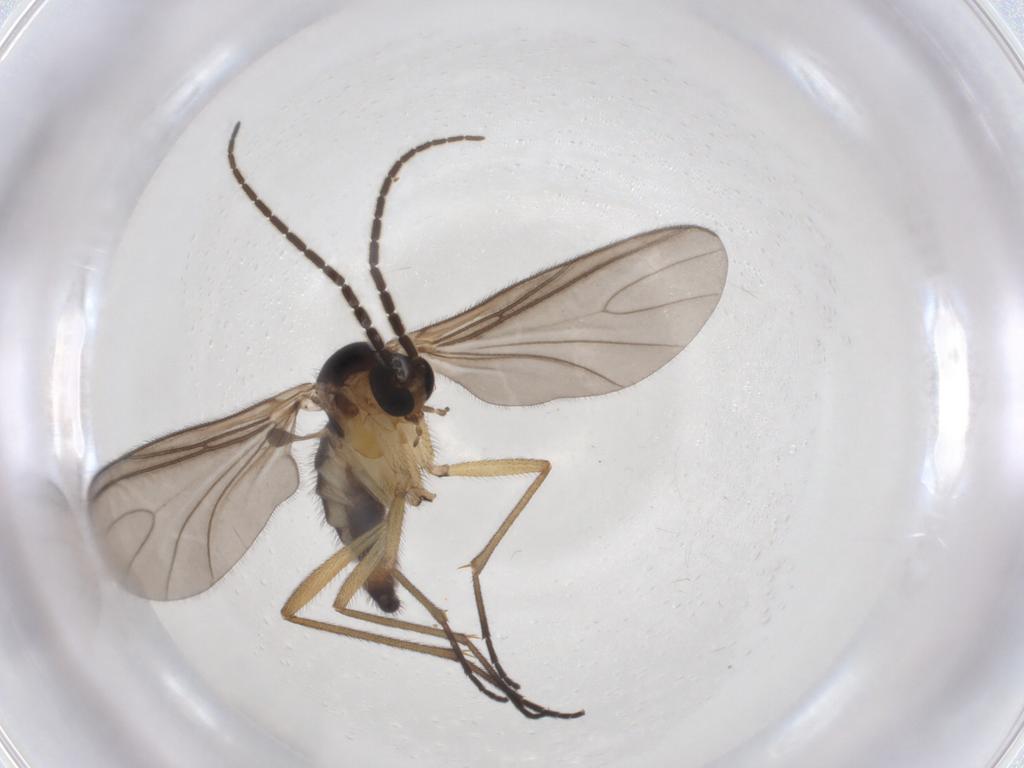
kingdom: Animalia
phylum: Arthropoda
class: Insecta
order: Diptera
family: Sciaridae
